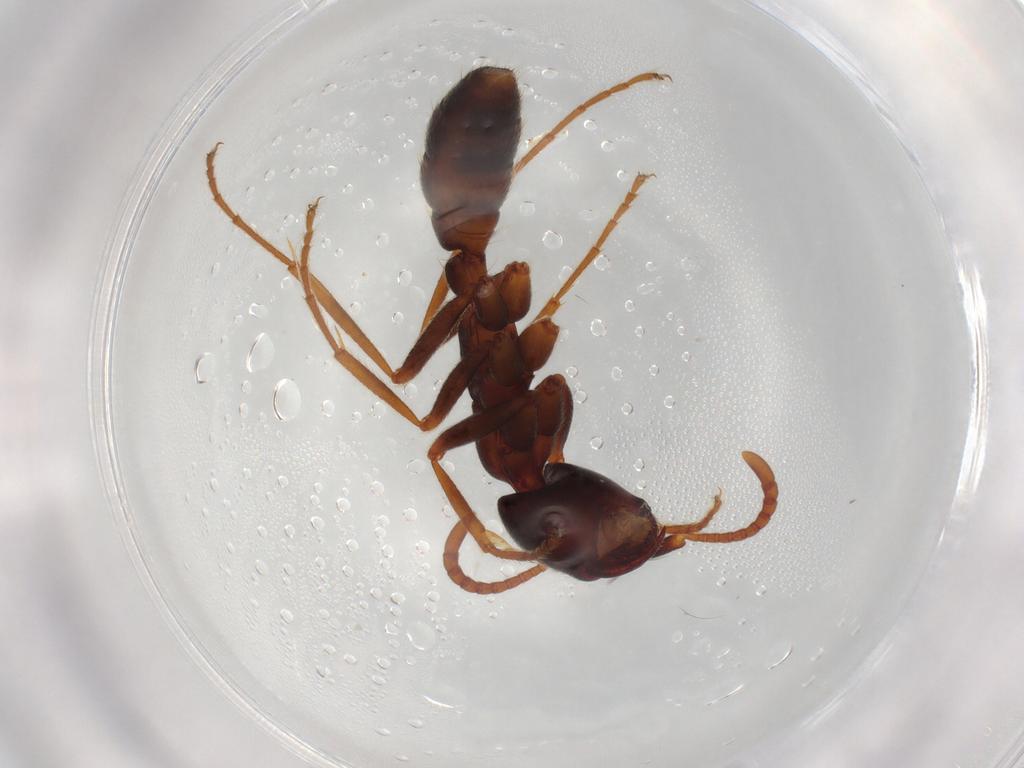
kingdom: Animalia
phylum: Arthropoda
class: Insecta
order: Hymenoptera
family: Formicidae
